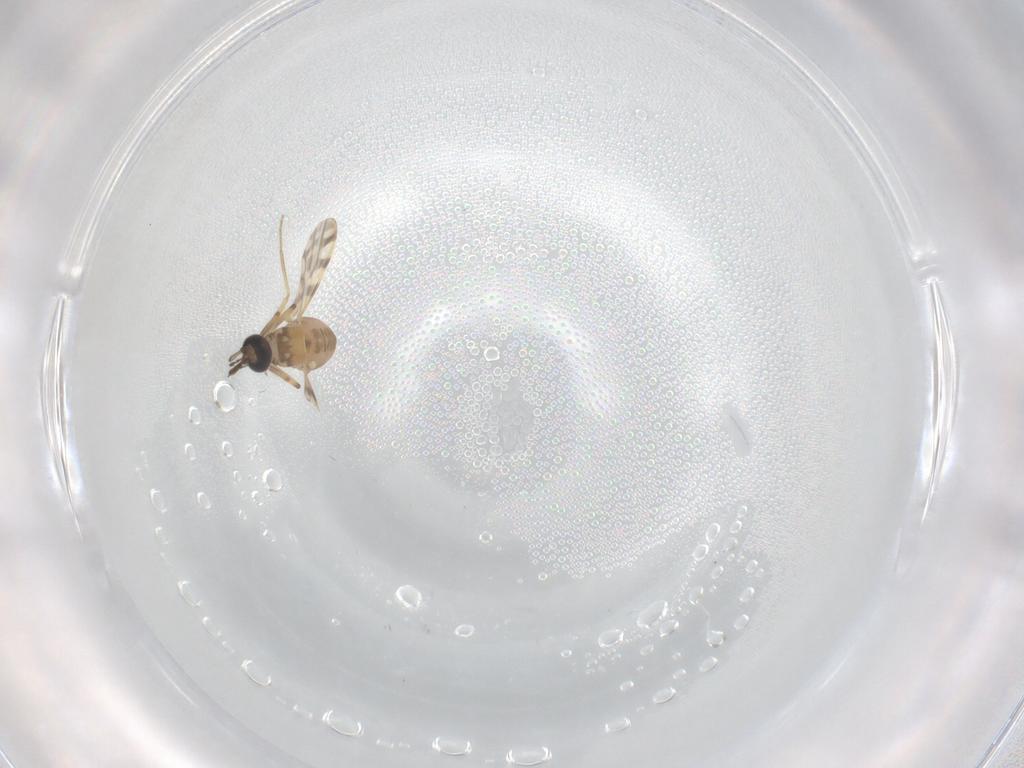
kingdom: Animalia
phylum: Arthropoda
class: Insecta
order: Diptera
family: Cecidomyiidae
